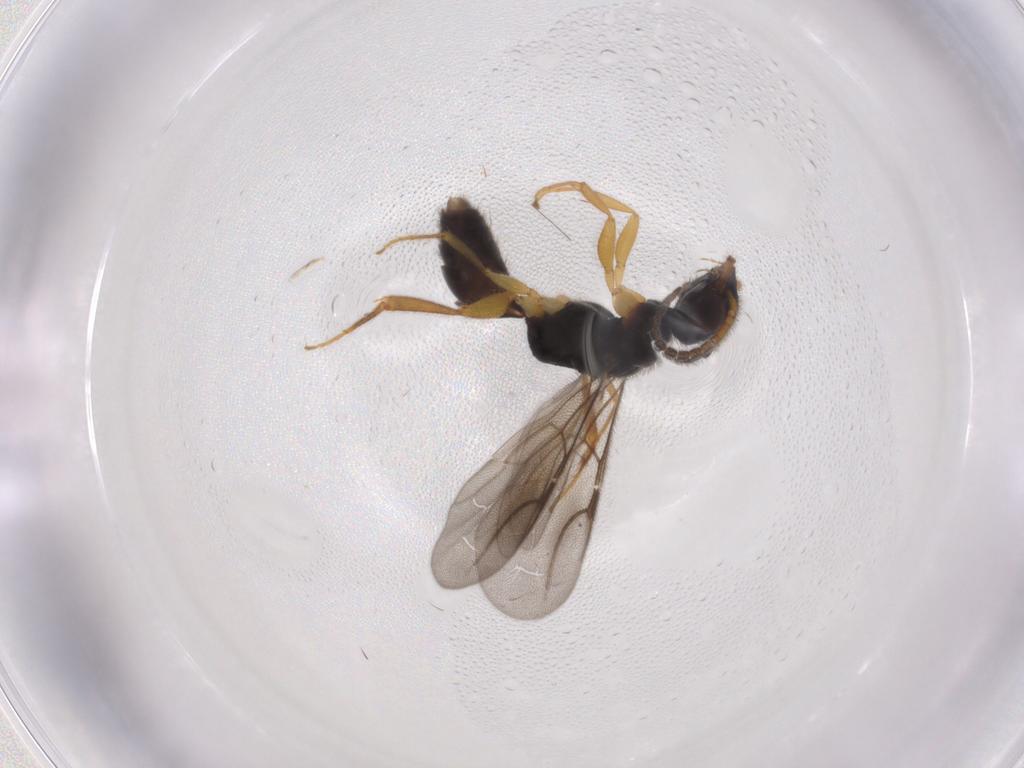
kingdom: Animalia
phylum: Arthropoda
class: Insecta
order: Hymenoptera
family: Bethylidae
